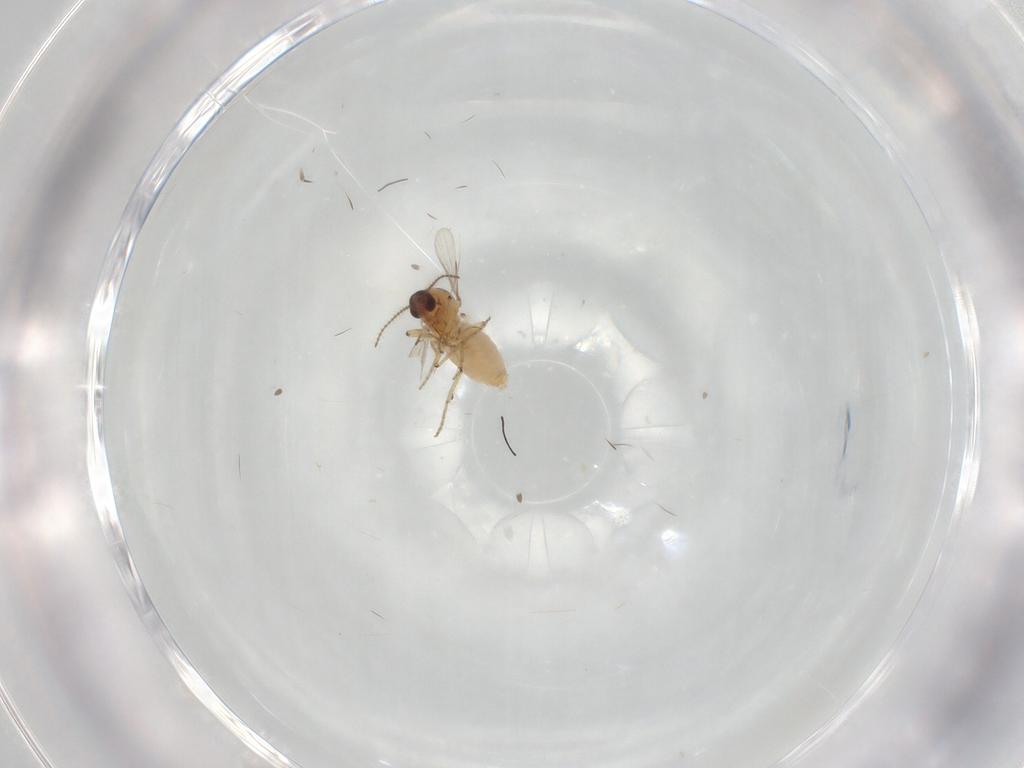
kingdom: Animalia
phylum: Arthropoda
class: Insecta
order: Diptera
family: Ceratopogonidae
